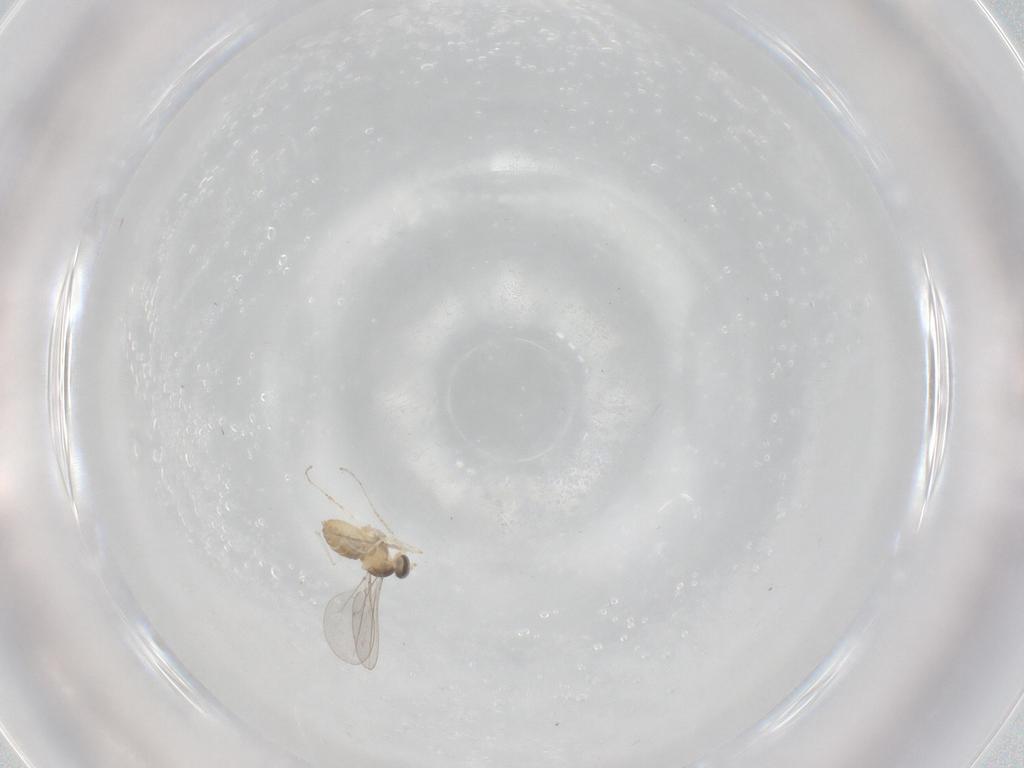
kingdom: Animalia
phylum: Arthropoda
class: Insecta
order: Diptera
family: Cecidomyiidae
